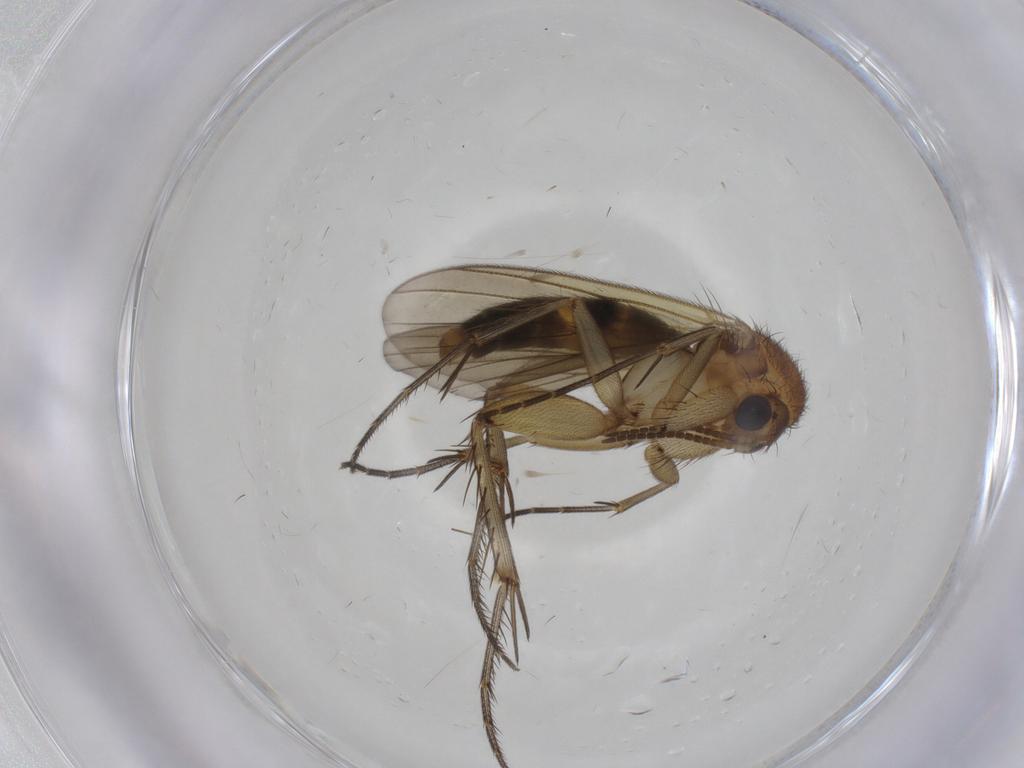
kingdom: Animalia
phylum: Arthropoda
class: Insecta
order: Diptera
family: Mycetophilidae
